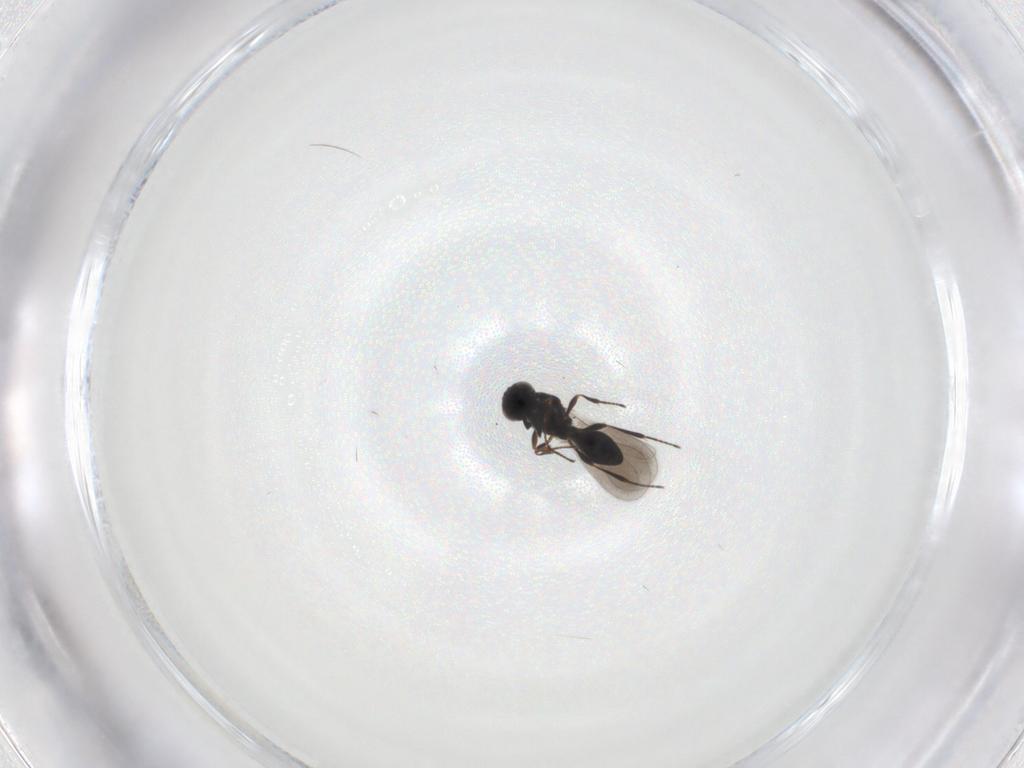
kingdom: Animalia
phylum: Arthropoda
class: Insecta
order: Hymenoptera
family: Platygastridae
